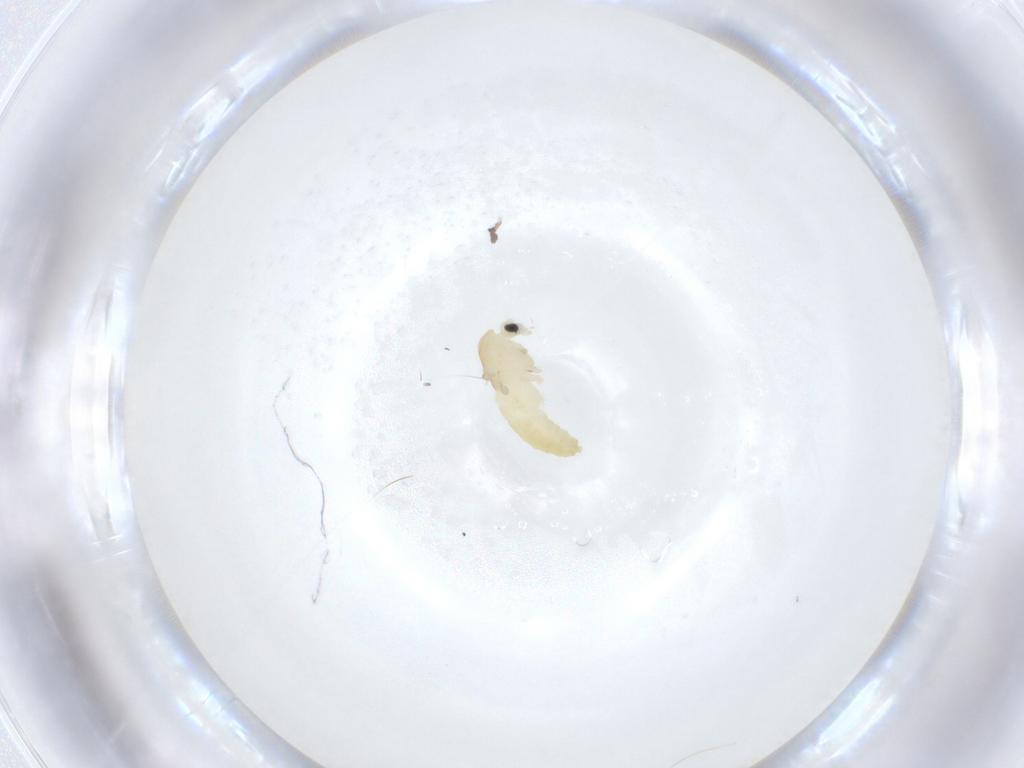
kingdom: Animalia
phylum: Arthropoda
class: Insecta
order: Diptera
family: Chironomidae
